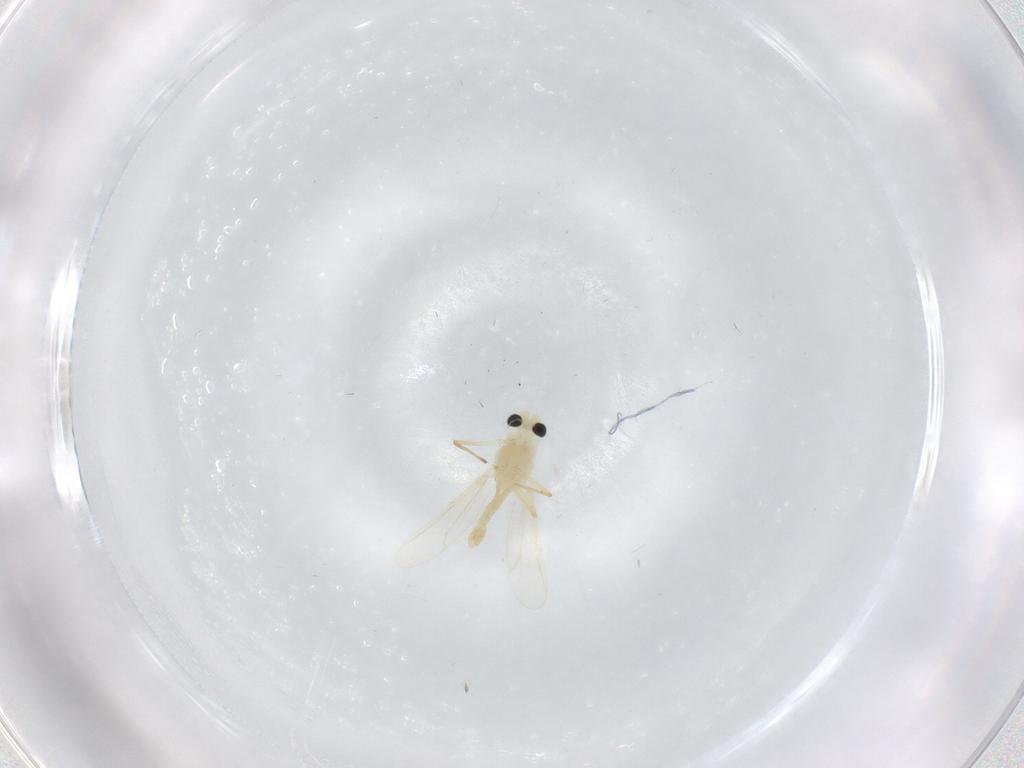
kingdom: Animalia
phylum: Arthropoda
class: Insecta
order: Diptera
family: Chironomidae
